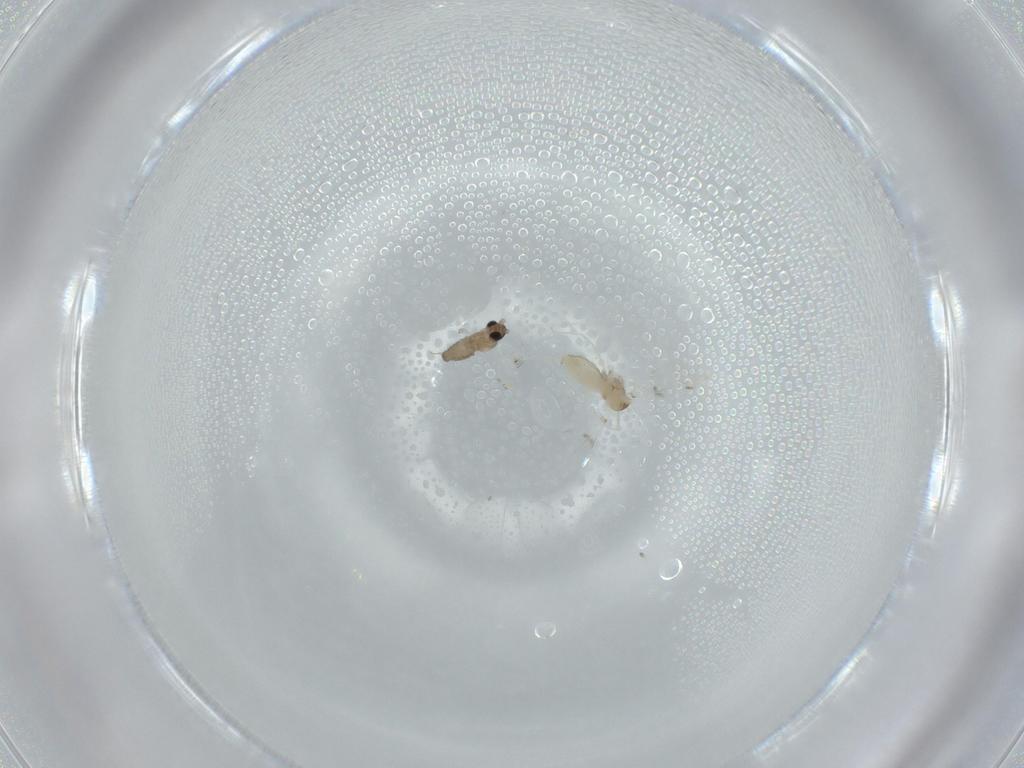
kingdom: Animalia
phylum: Arthropoda
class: Insecta
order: Diptera
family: Cecidomyiidae
